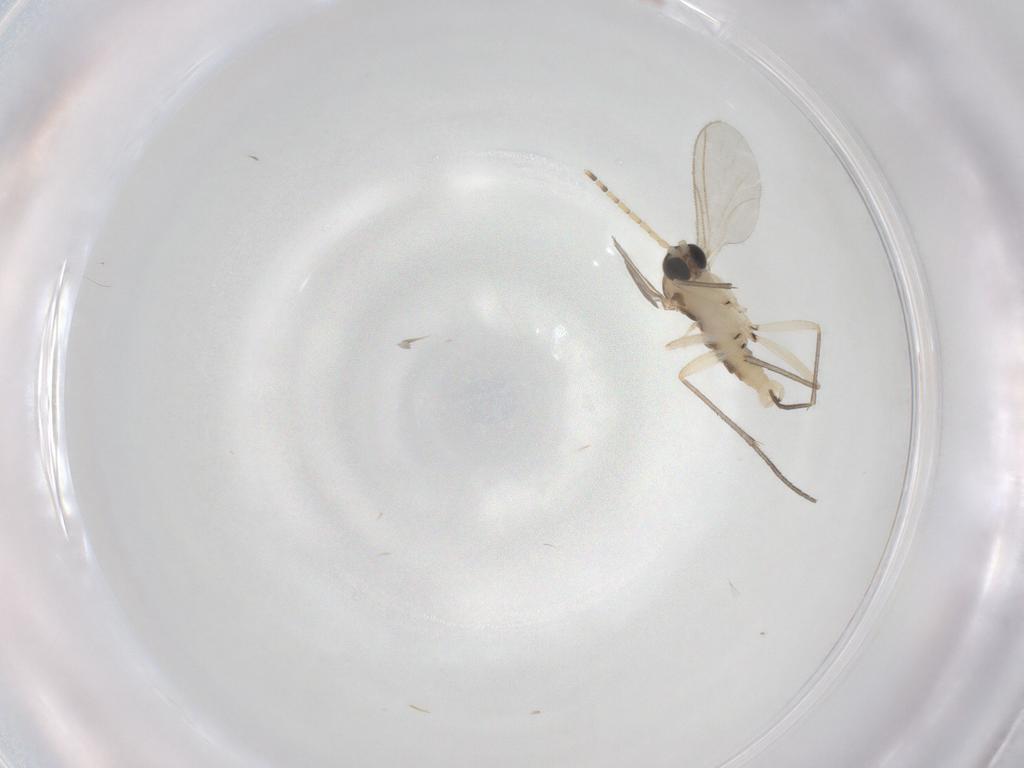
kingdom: Animalia
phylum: Arthropoda
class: Insecta
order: Diptera
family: Sciaridae
